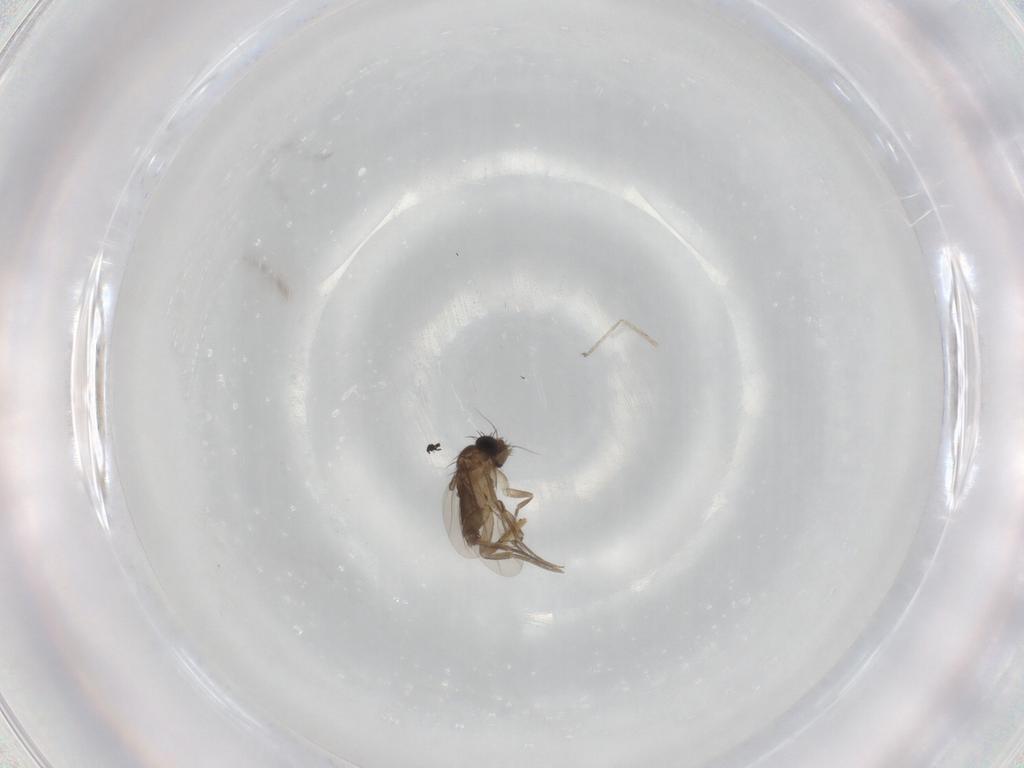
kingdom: Animalia
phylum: Arthropoda
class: Insecta
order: Diptera
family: Phoridae
